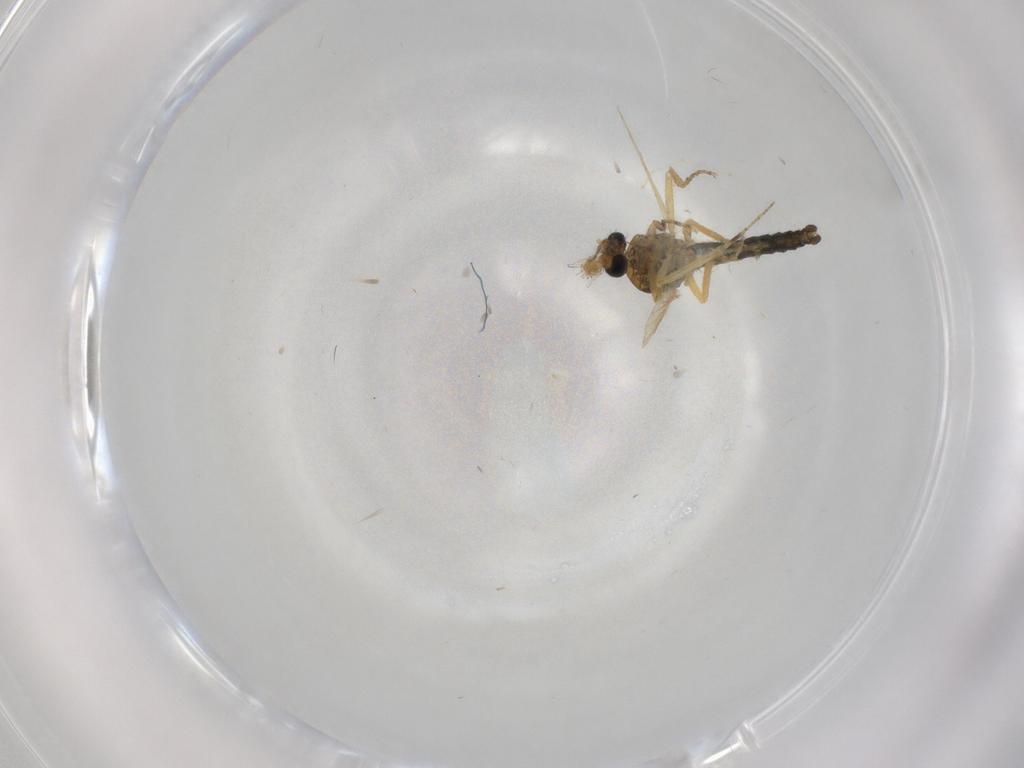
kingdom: Animalia
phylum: Arthropoda
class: Insecta
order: Diptera
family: Ceratopogonidae
